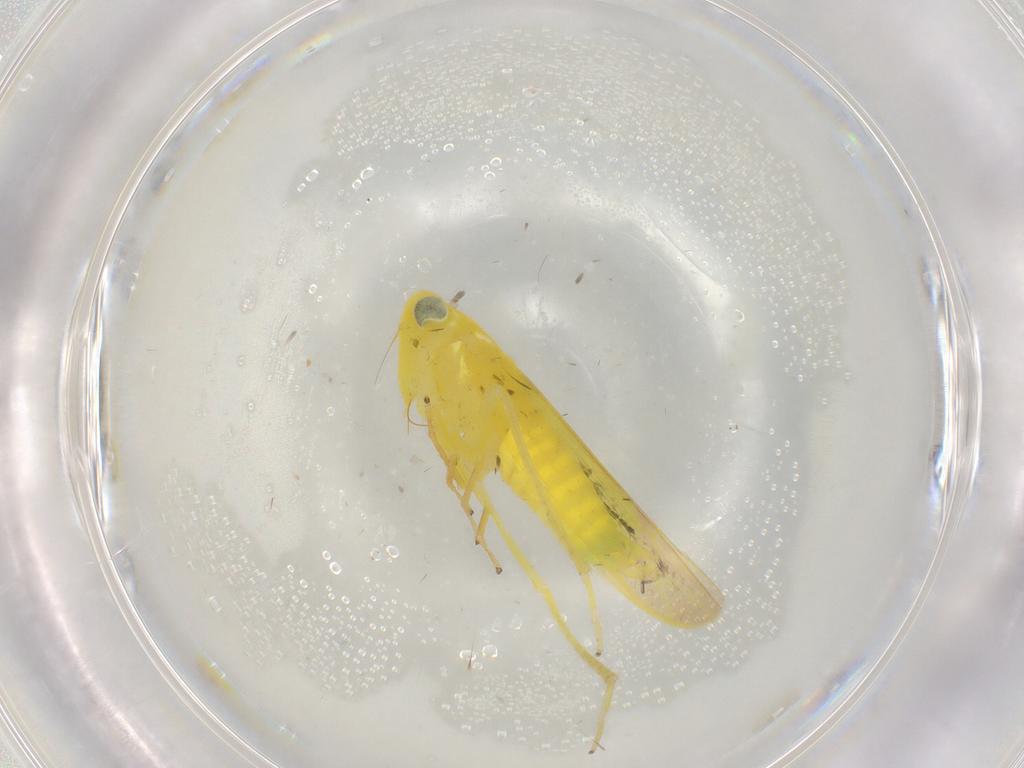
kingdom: Animalia
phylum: Arthropoda
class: Insecta
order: Hemiptera
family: Cicadellidae
